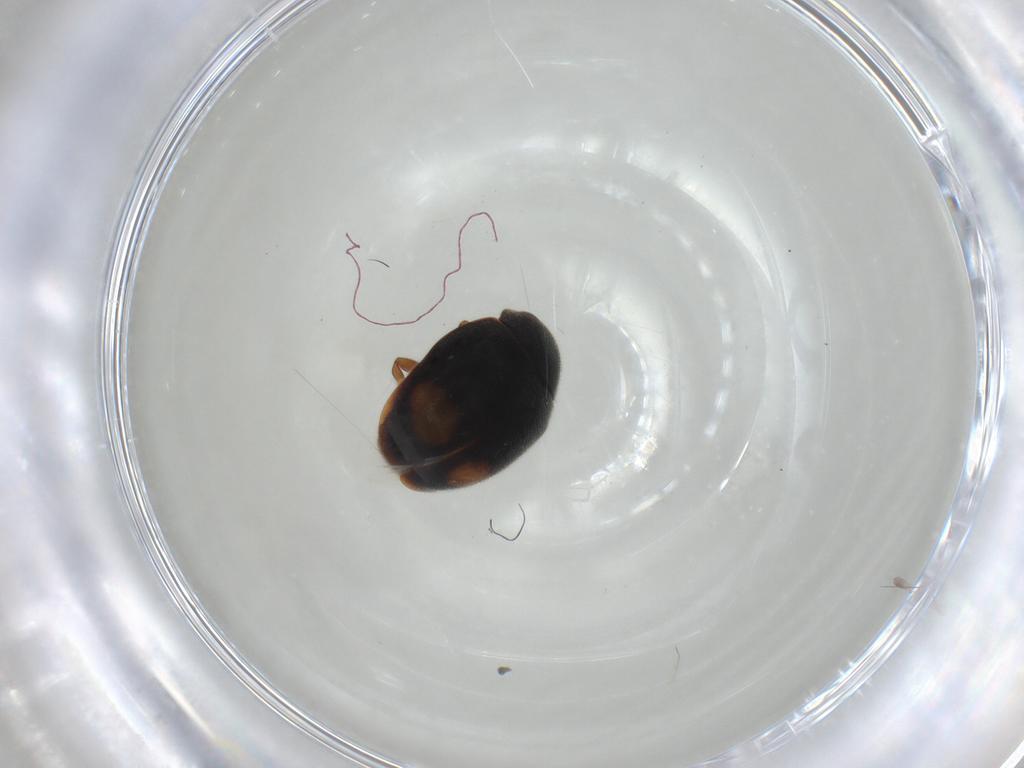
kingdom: Animalia
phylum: Arthropoda
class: Insecta
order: Coleoptera
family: Coccinellidae
